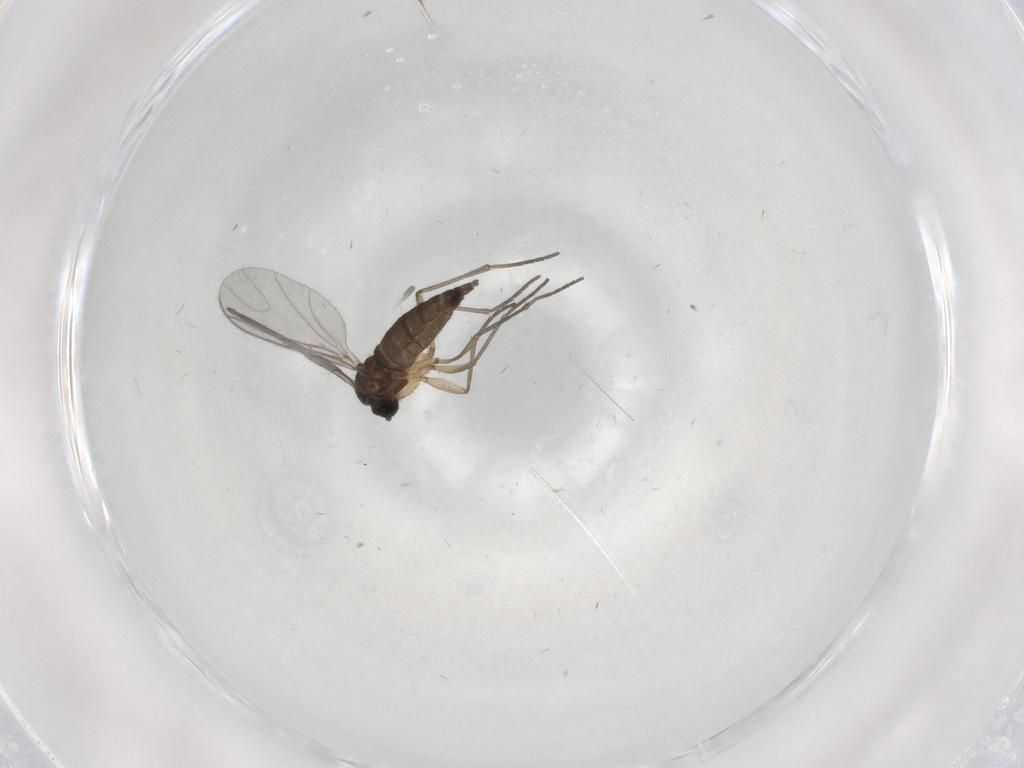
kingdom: Animalia
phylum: Arthropoda
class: Insecta
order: Diptera
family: Sciaridae
